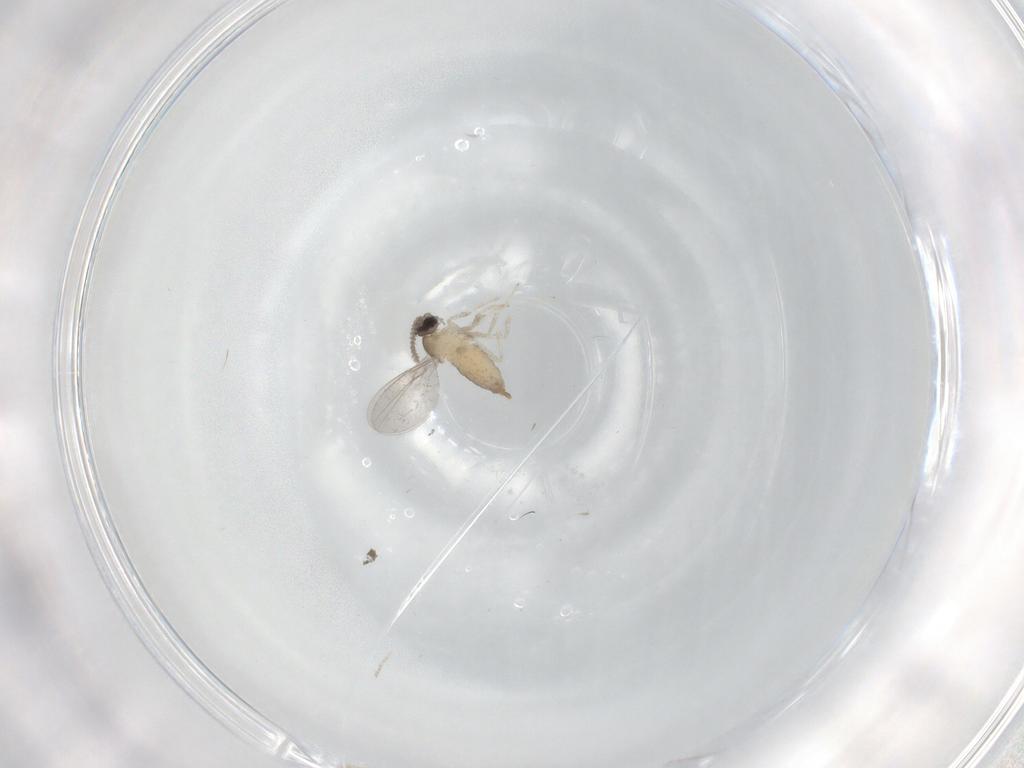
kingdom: Animalia
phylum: Arthropoda
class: Insecta
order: Diptera
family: Cecidomyiidae
